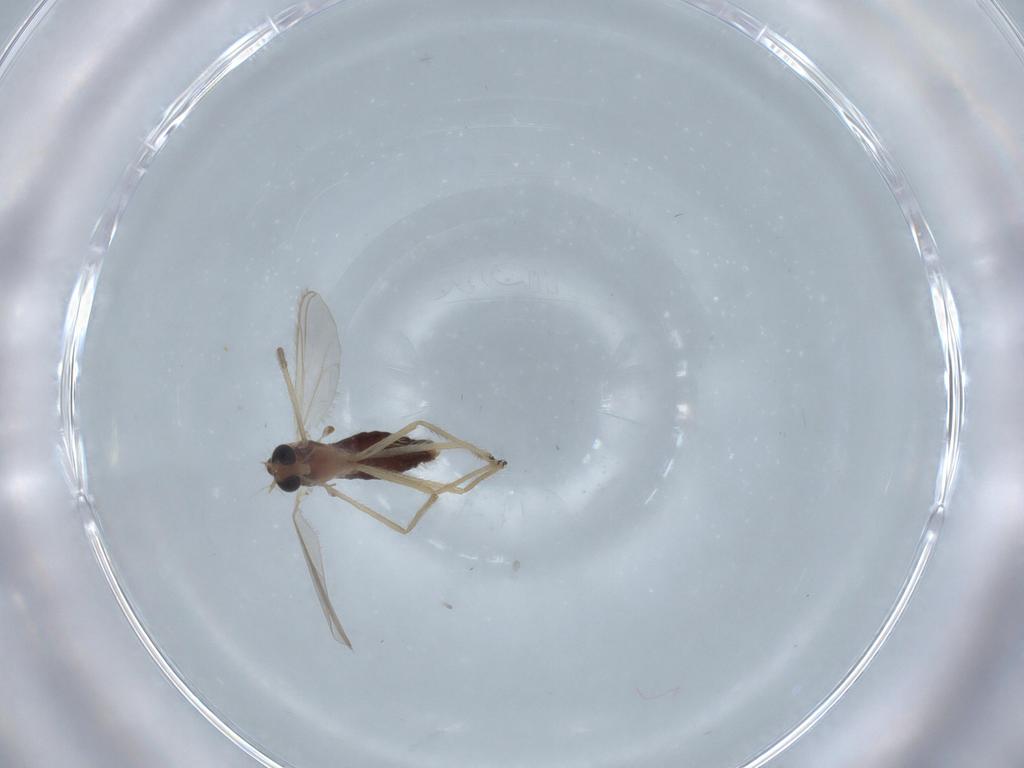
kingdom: Animalia
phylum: Arthropoda
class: Insecta
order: Diptera
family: Chironomidae
